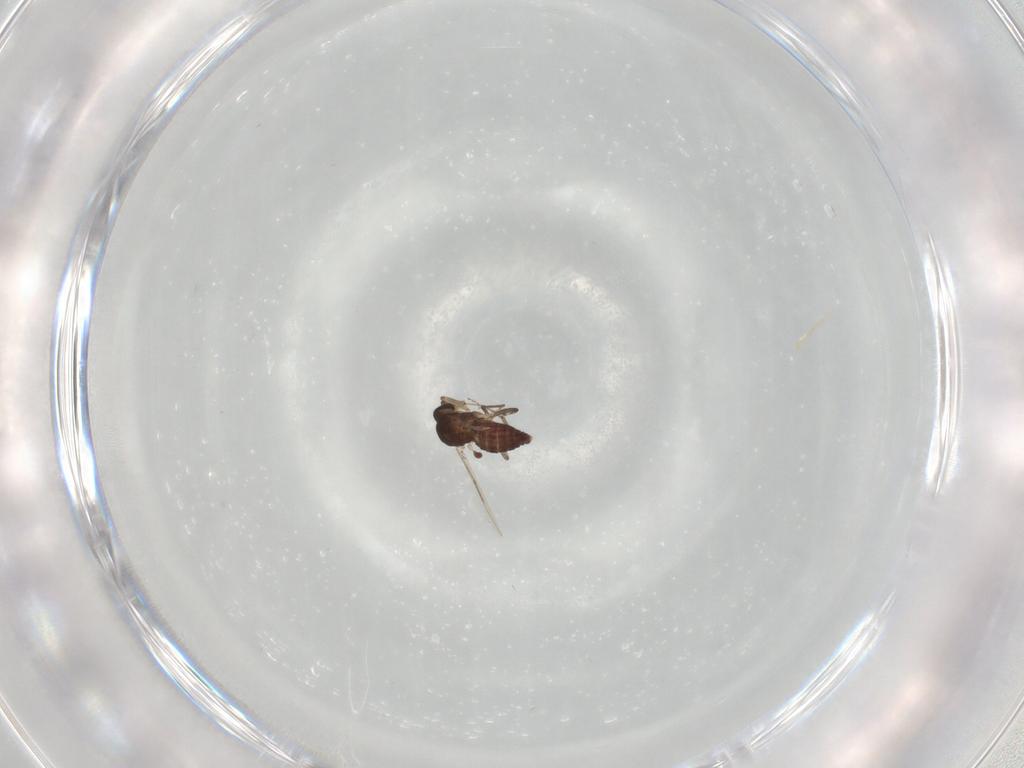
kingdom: Animalia
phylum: Arthropoda
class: Insecta
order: Diptera
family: Ceratopogonidae
